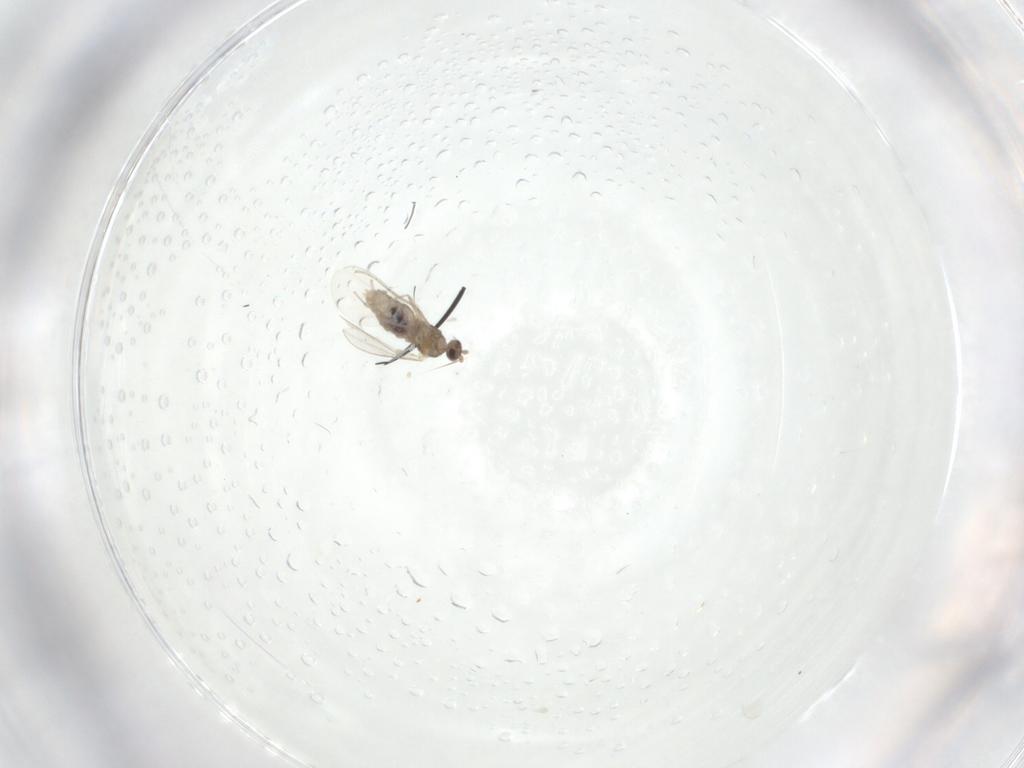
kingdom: Animalia
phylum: Arthropoda
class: Insecta
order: Diptera
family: Cecidomyiidae
